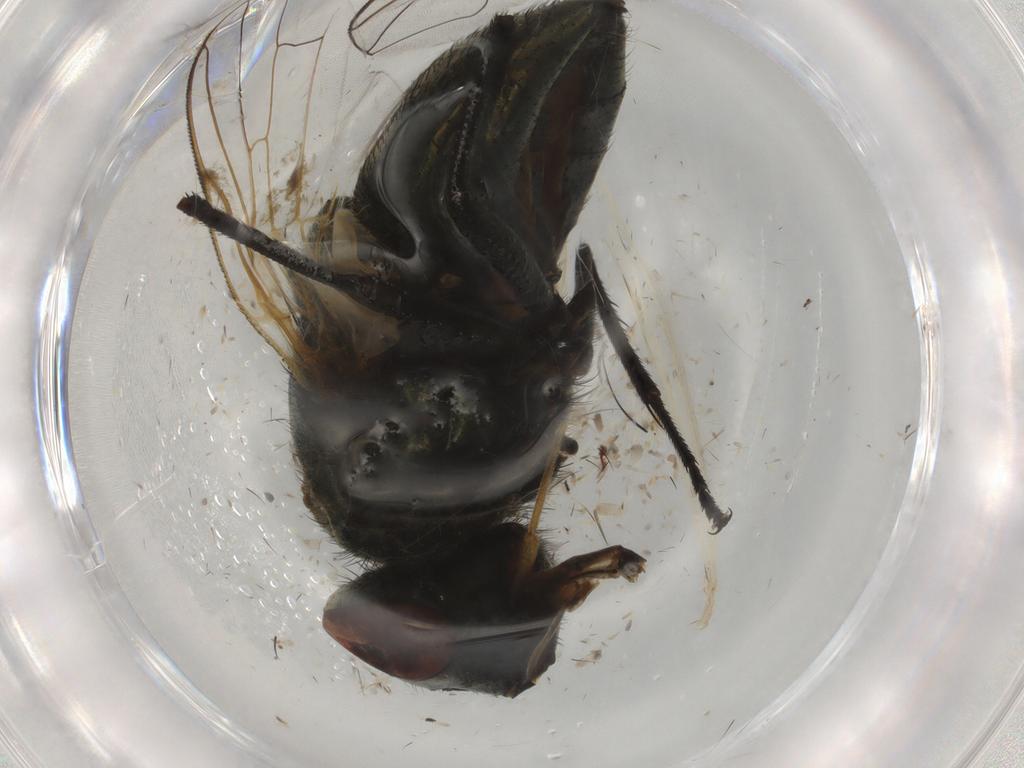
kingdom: Animalia
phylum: Arthropoda
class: Insecta
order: Diptera
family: Muscidae
